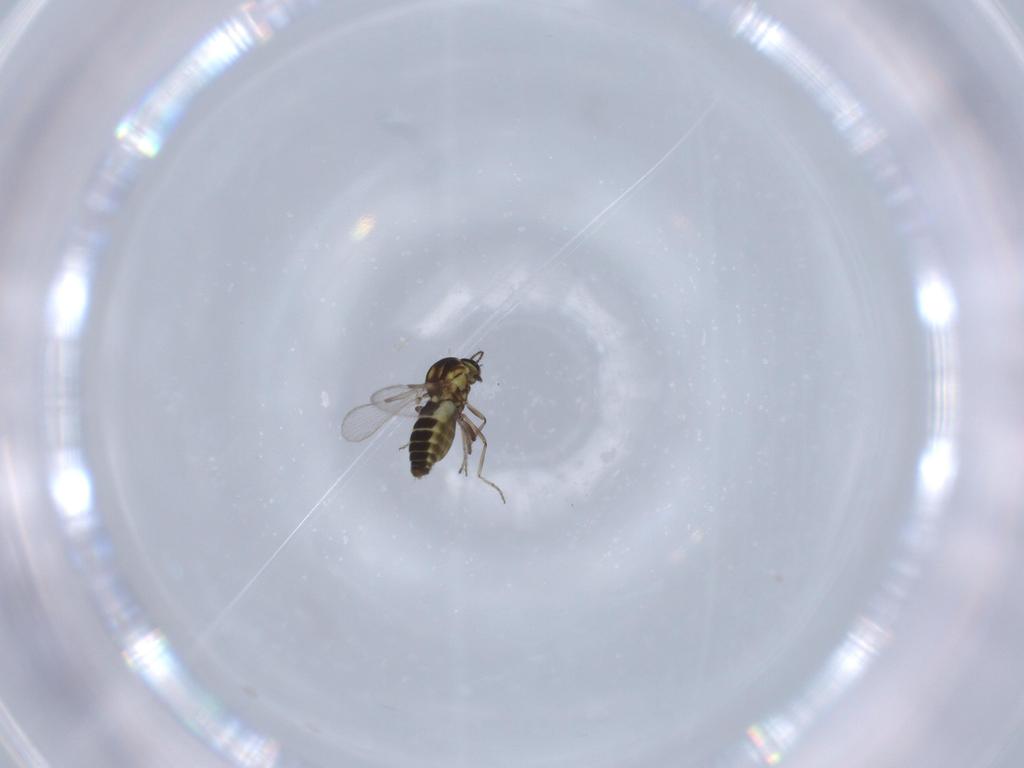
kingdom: Animalia
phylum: Arthropoda
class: Insecta
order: Diptera
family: Ceratopogonidae
